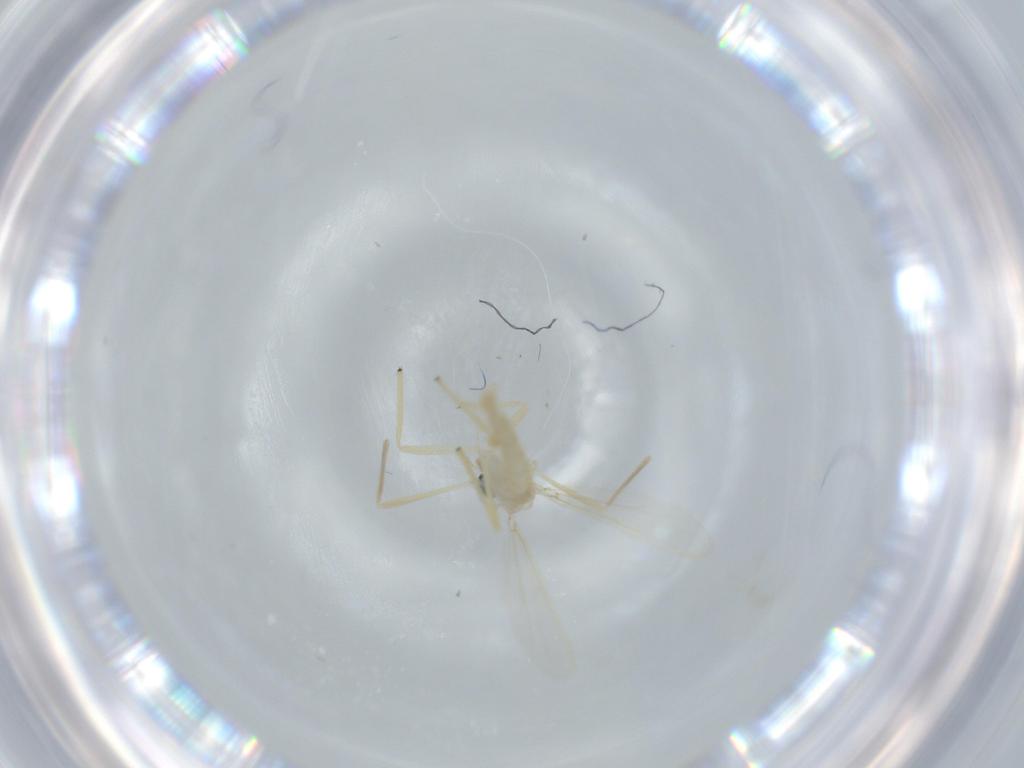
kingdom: Animalia
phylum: Arthropoda
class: Insecta
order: Diptera
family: Chironomidae
